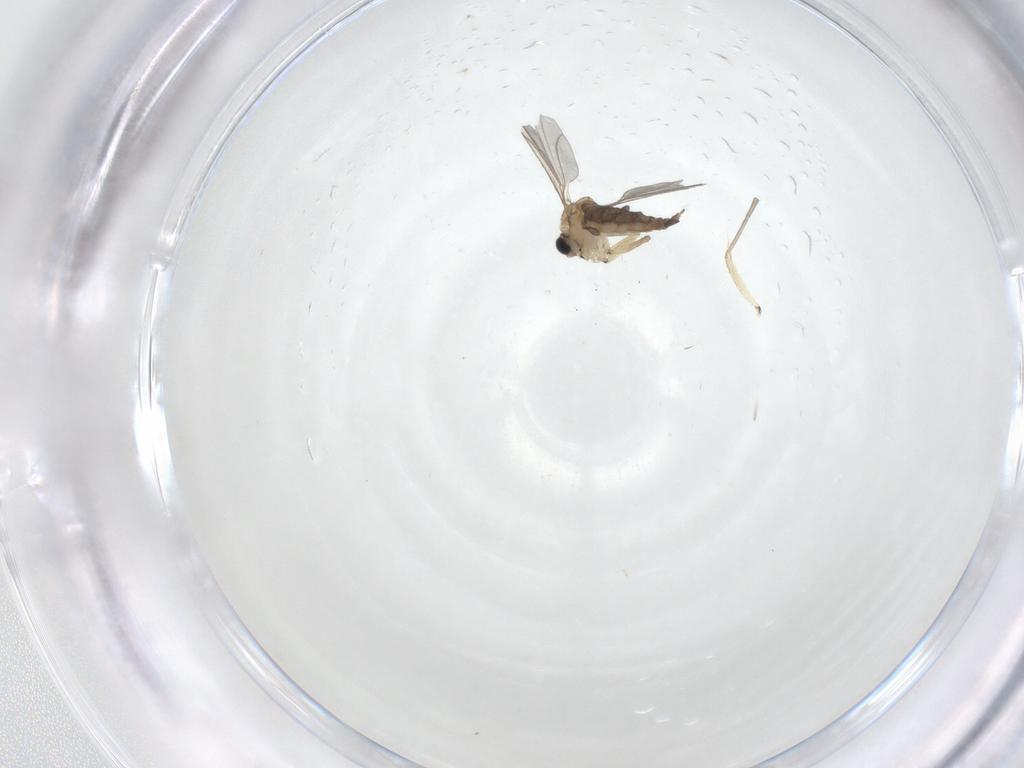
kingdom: Animalia
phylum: Arthropoda
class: Insecta
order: Diptera
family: Sciaridae
